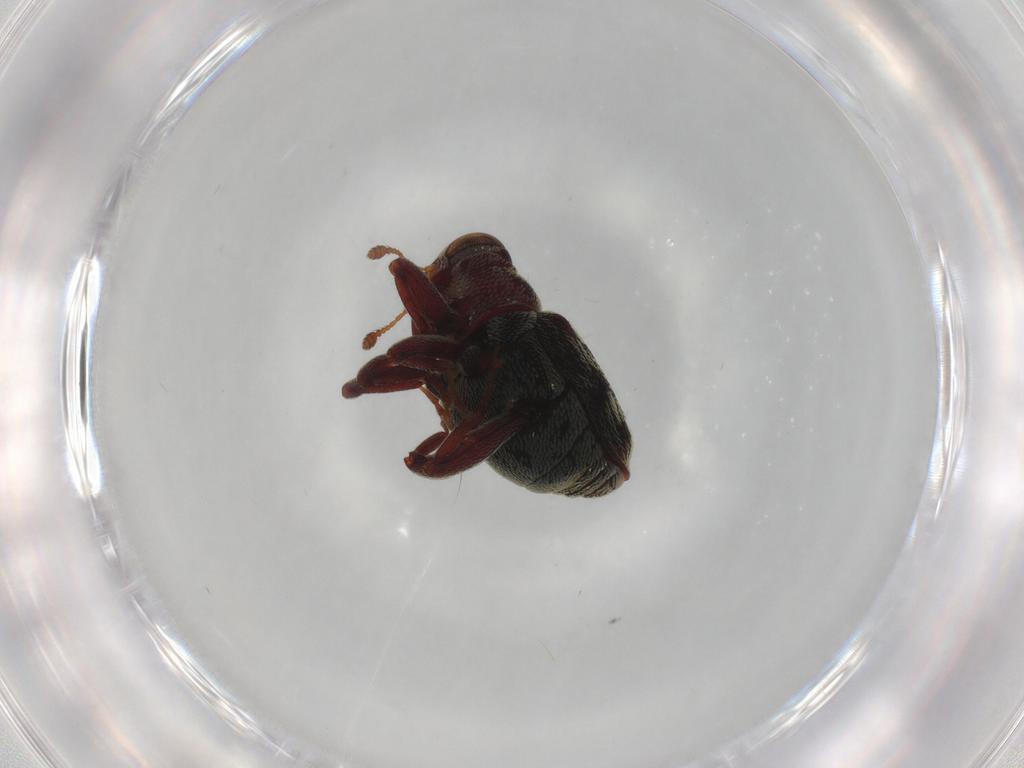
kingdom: Animalia
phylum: Arthropoda
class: Insecta
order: Coleoptera
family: Curculionidae
